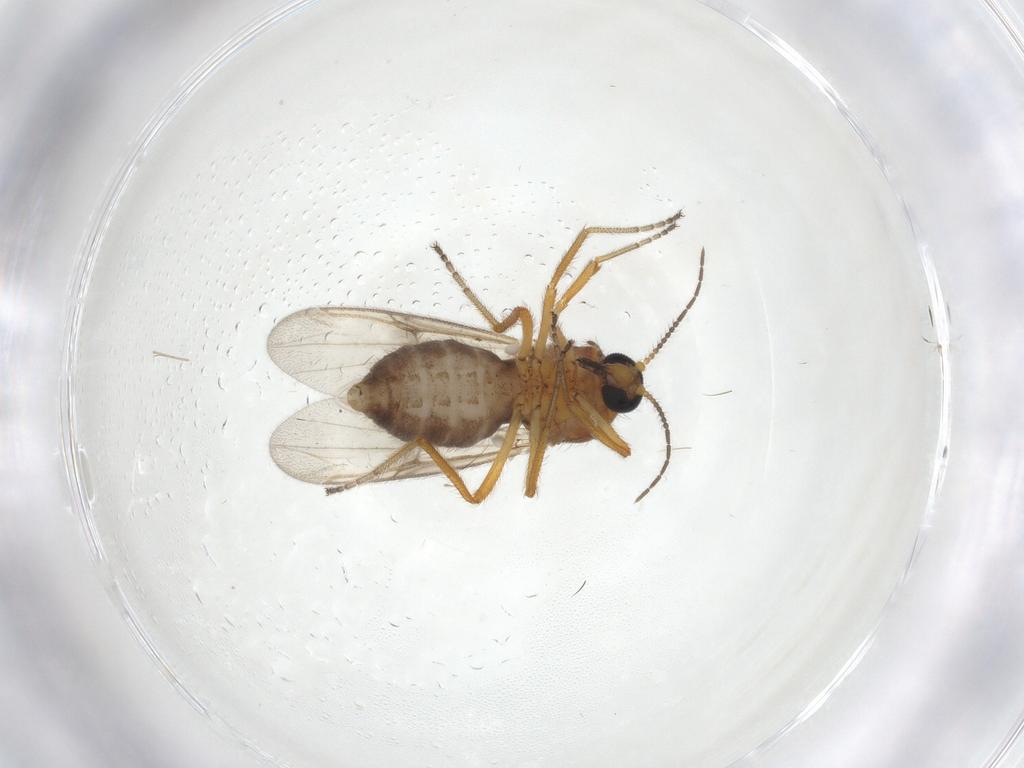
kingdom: Animalia
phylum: Arthropoda
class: Insecta
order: Diptera
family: Ceratopogonidae
